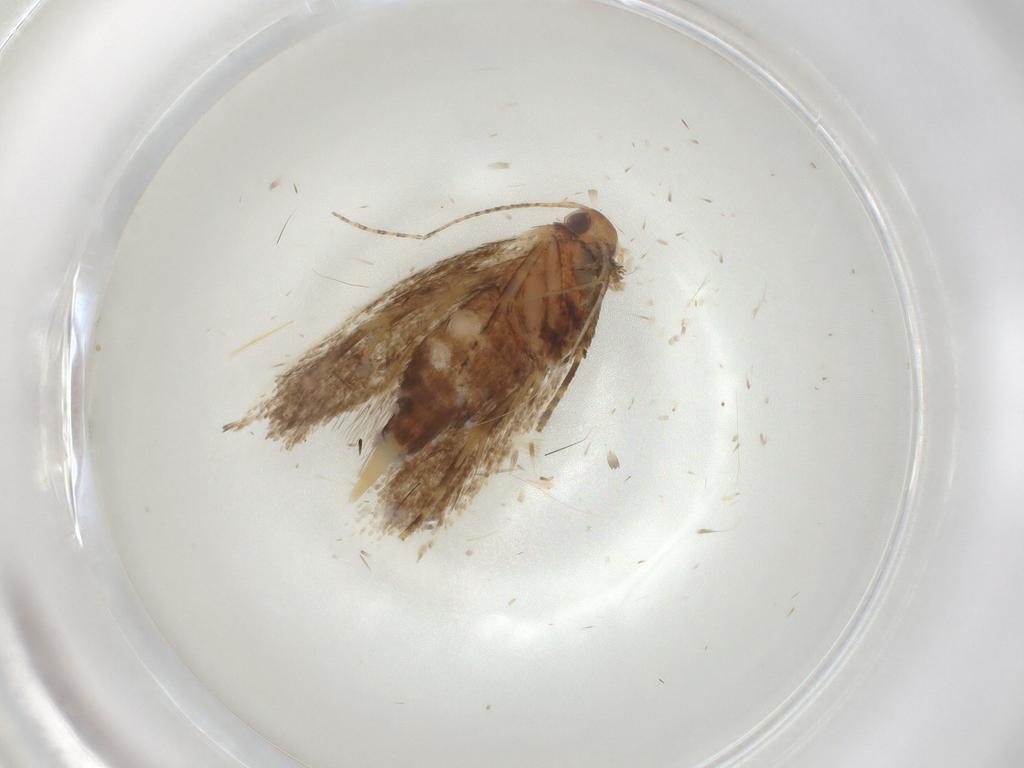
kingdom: Animalia
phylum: Arthropoda
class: Insecta
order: Lepidoptera
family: Oecophoridae
